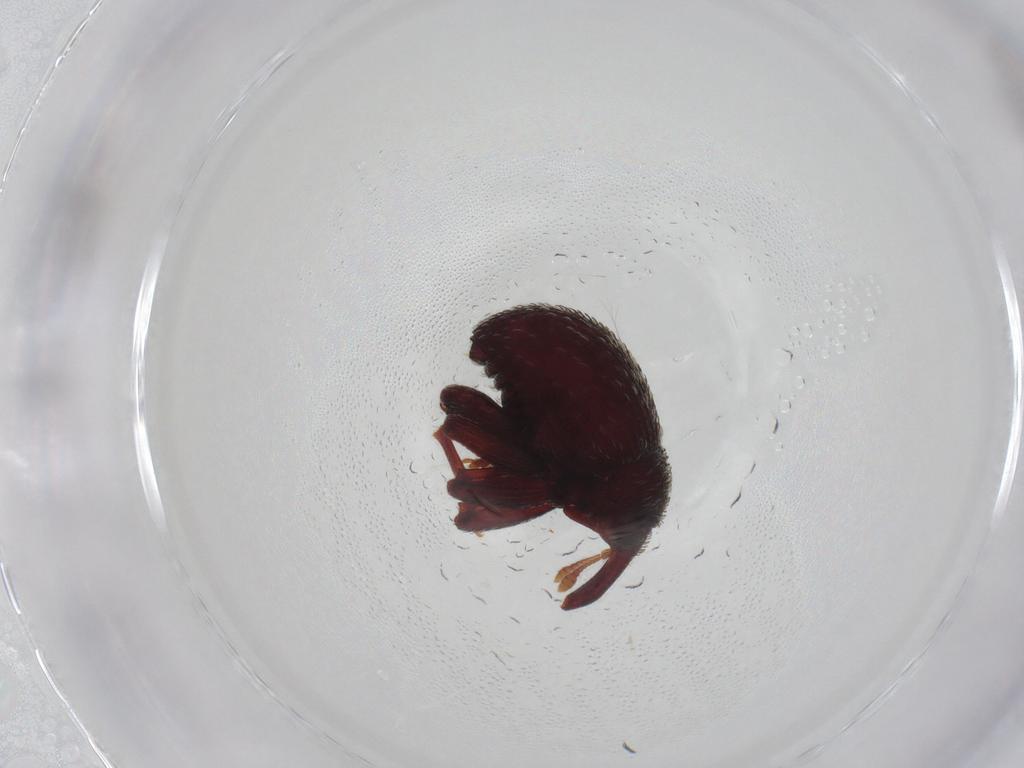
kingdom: Animalia
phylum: Arthropoda
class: Insecta
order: Coleoptera
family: Curculionidae
